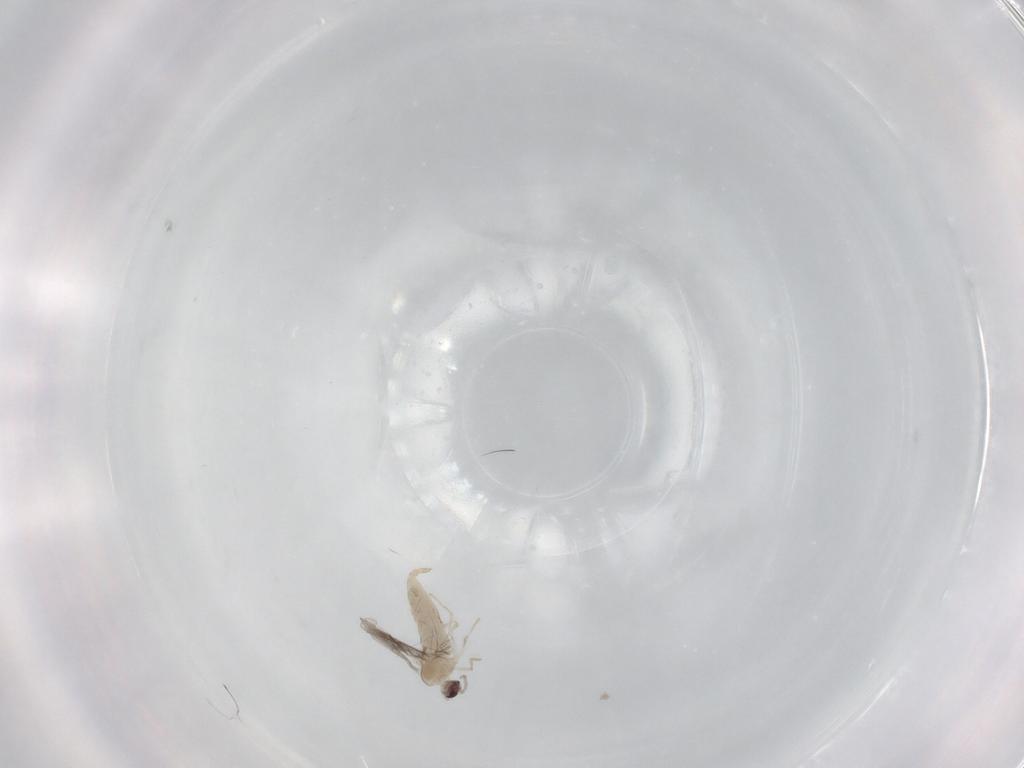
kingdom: Animalia
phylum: Arthropoda
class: Insecta
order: Diptera
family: Cecidomyiidae
